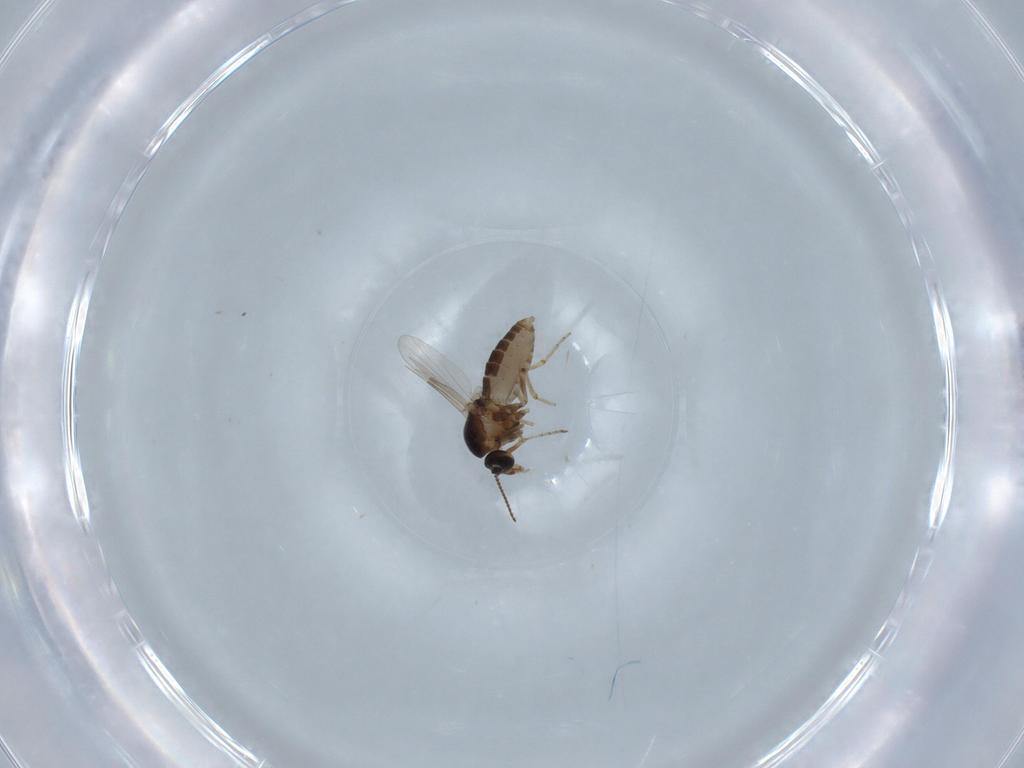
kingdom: Animalia
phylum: Arthropoda
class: Insecta
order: Diptera
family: Ceratopogonidae
